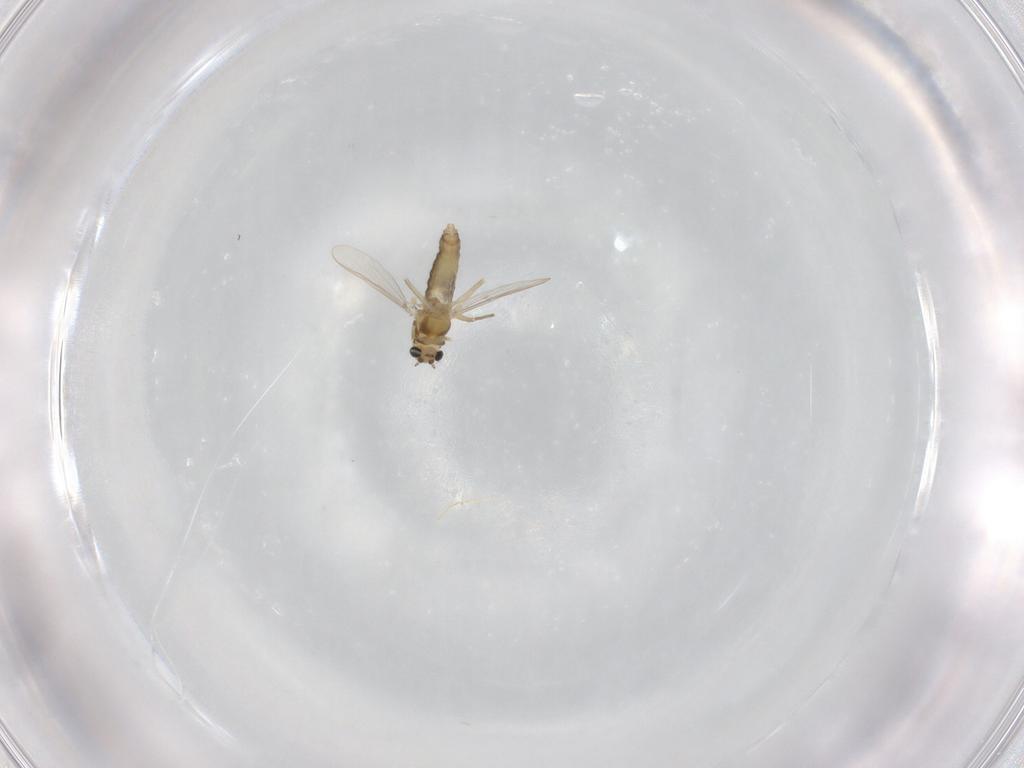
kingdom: Animalia
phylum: Arthropoda
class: Insecta
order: Diptera
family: Chironomidae
